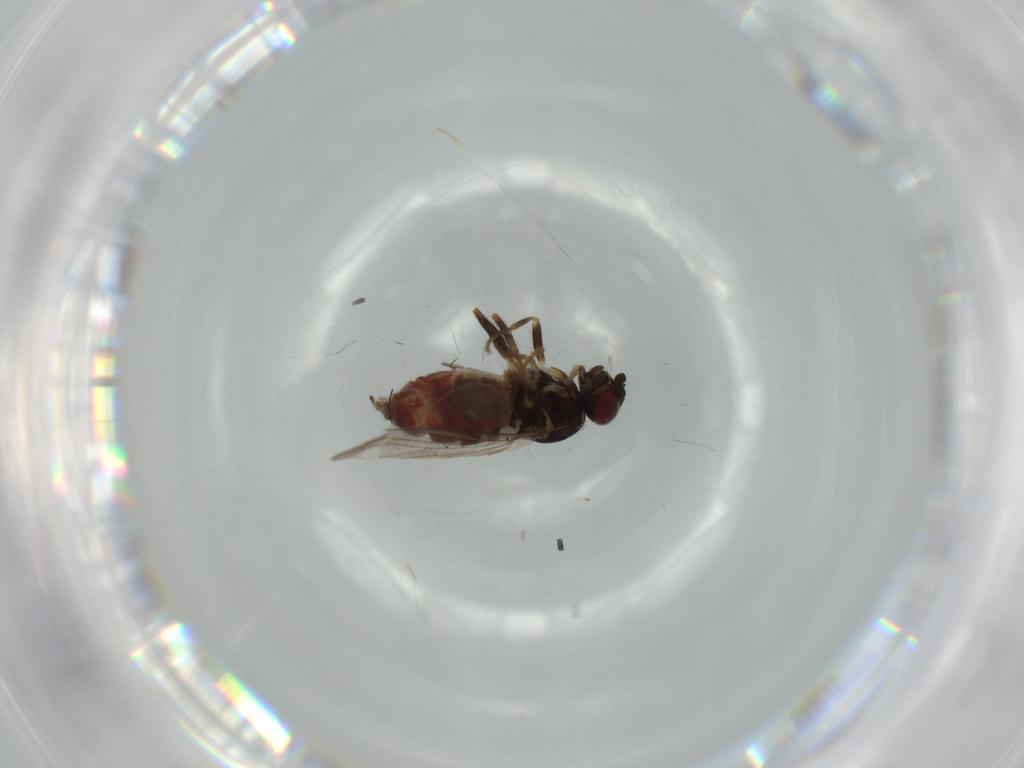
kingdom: Animalia
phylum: Arthropoda
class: Insecta
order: Diptera
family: Chloropidae
